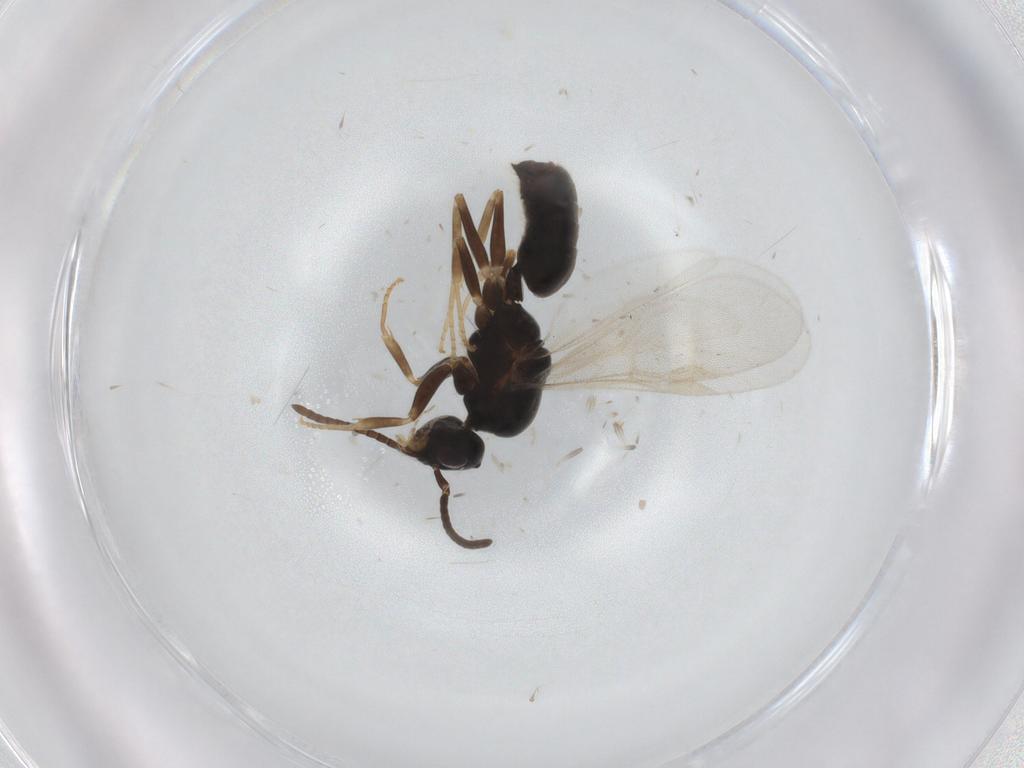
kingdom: Animalia
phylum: Arthropoda
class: Insecta
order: Hymenoptera
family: Formicidae
